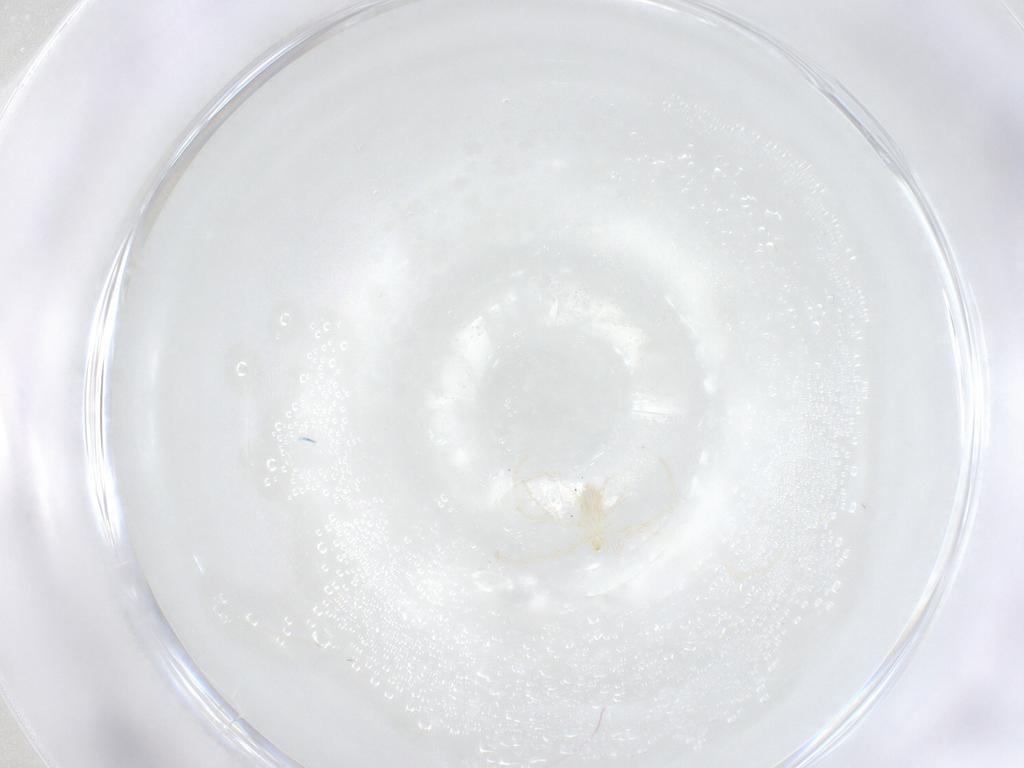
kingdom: Animalia
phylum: Arthropoda
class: Arachnida
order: Trombidiformes
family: Erythraeidae
